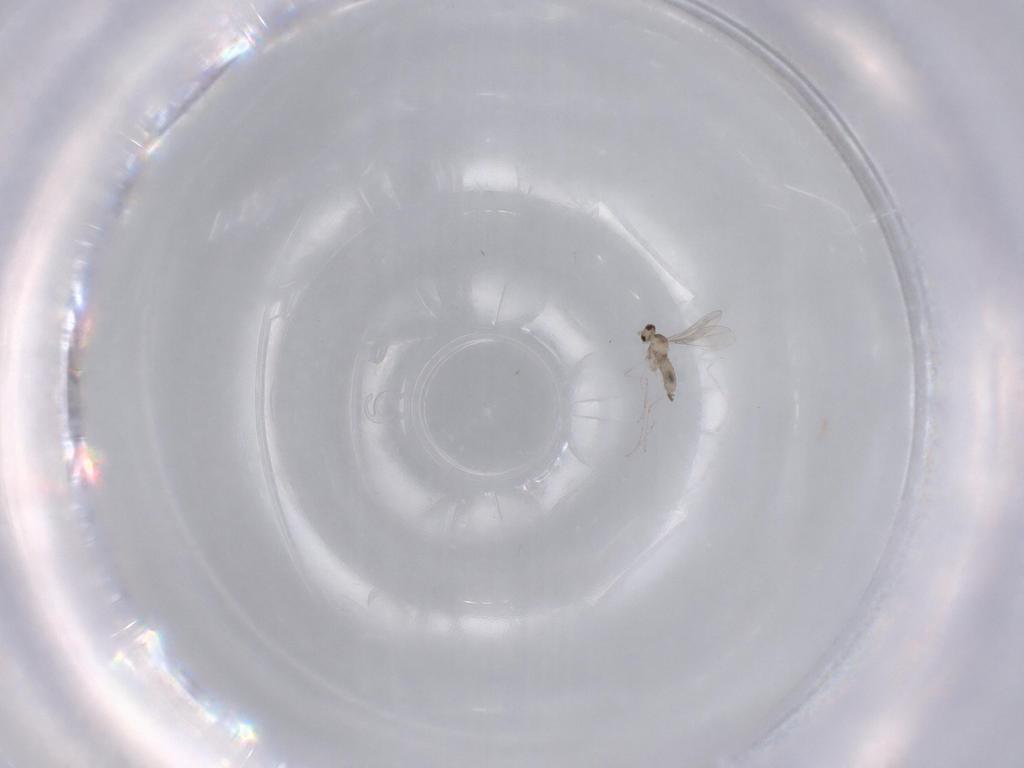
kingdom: Animalia
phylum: Arthropoda
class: Insecta
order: Diptera
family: Cecidomyiidae
